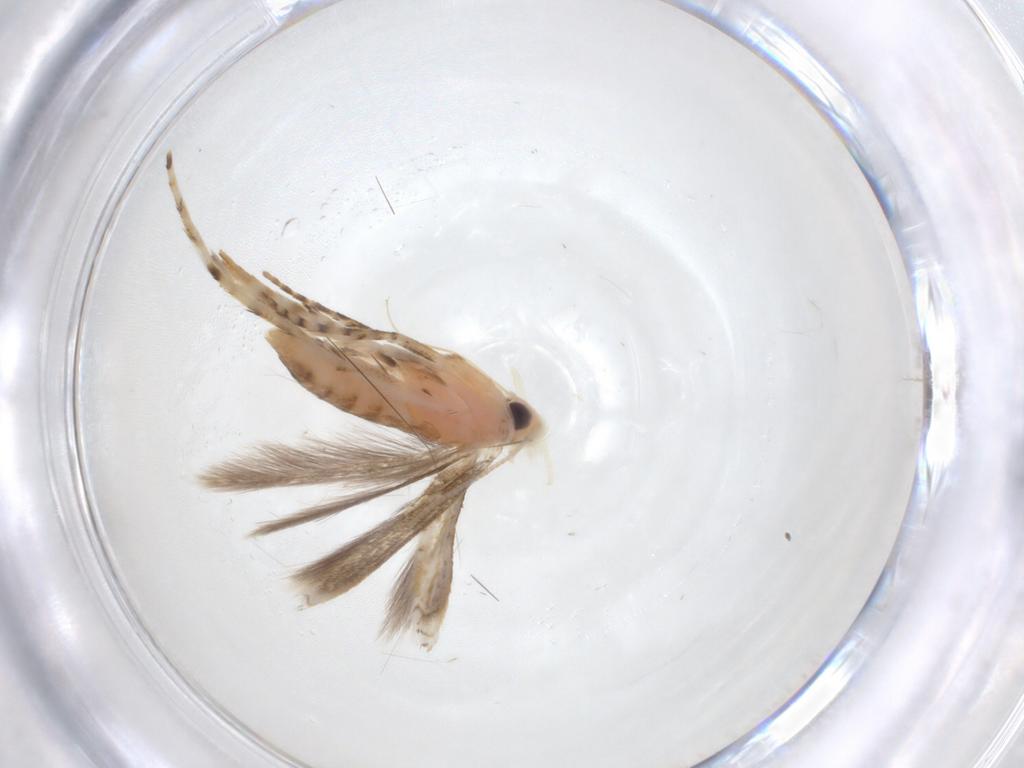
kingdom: Animalia
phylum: Arthropoda
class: Insecta
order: Lepidoptera
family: Gracillariidae
